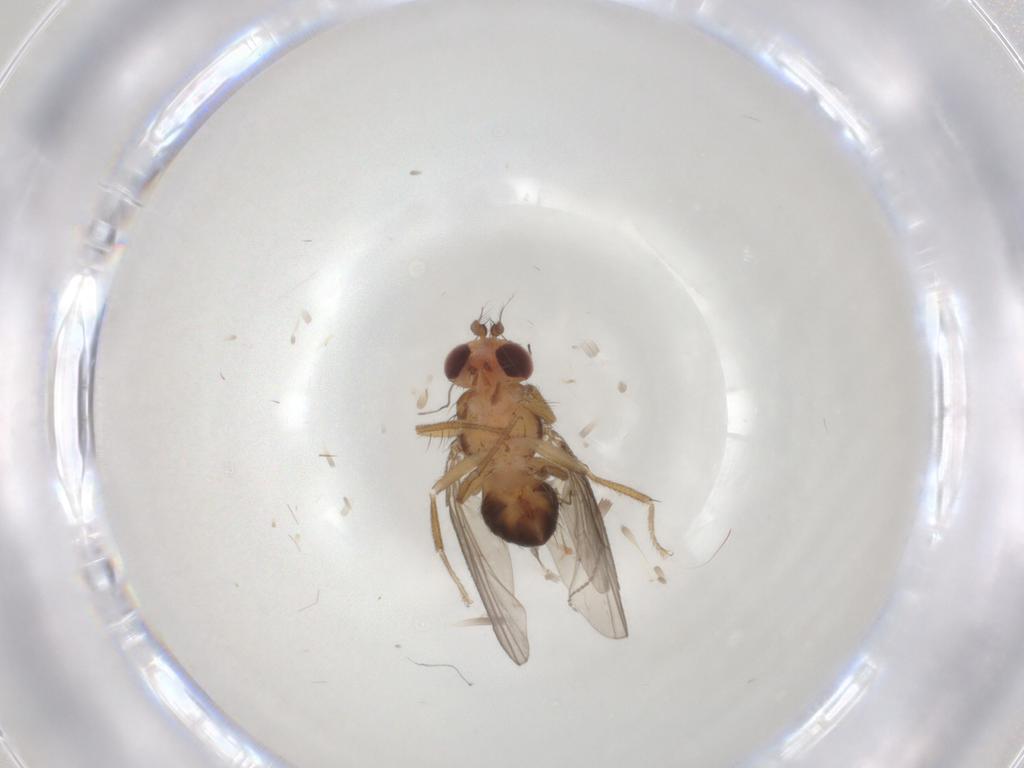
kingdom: Animalia
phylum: Arthropoda
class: Insecta
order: Diptera
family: Drosophilidae
